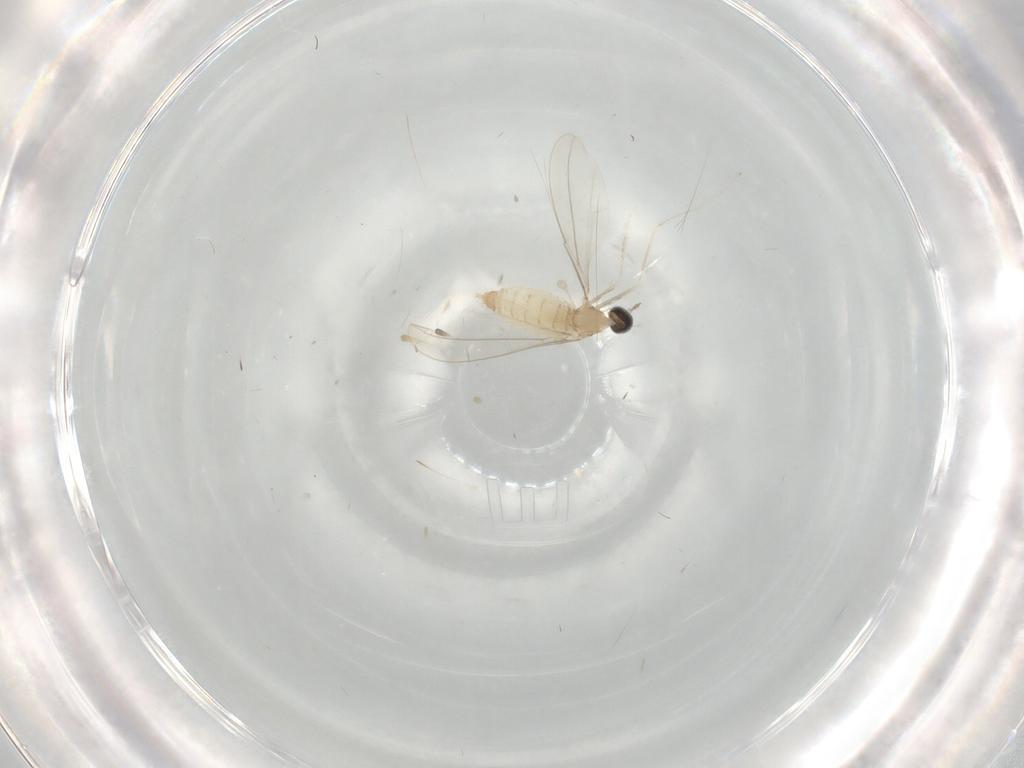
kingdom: Animalia
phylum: Arthropoda
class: Insecta
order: Diptera
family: Cecidomyiidae
